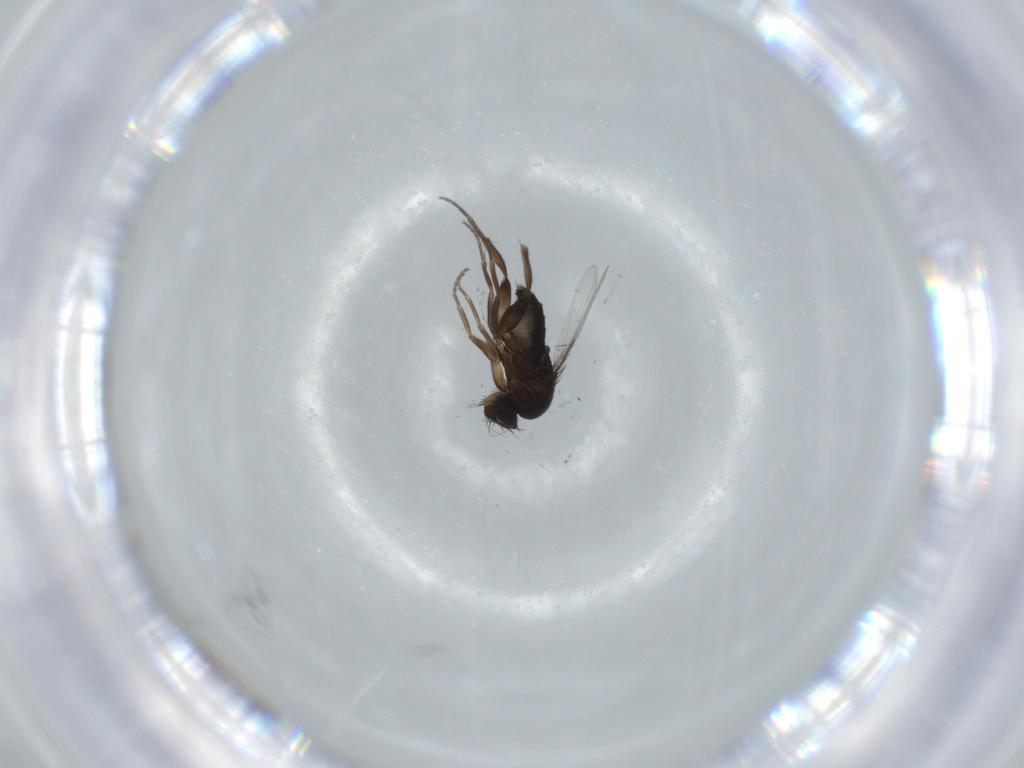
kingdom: Animalia
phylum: Arthropoda
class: Insecta
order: Diptera
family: Phoridae
